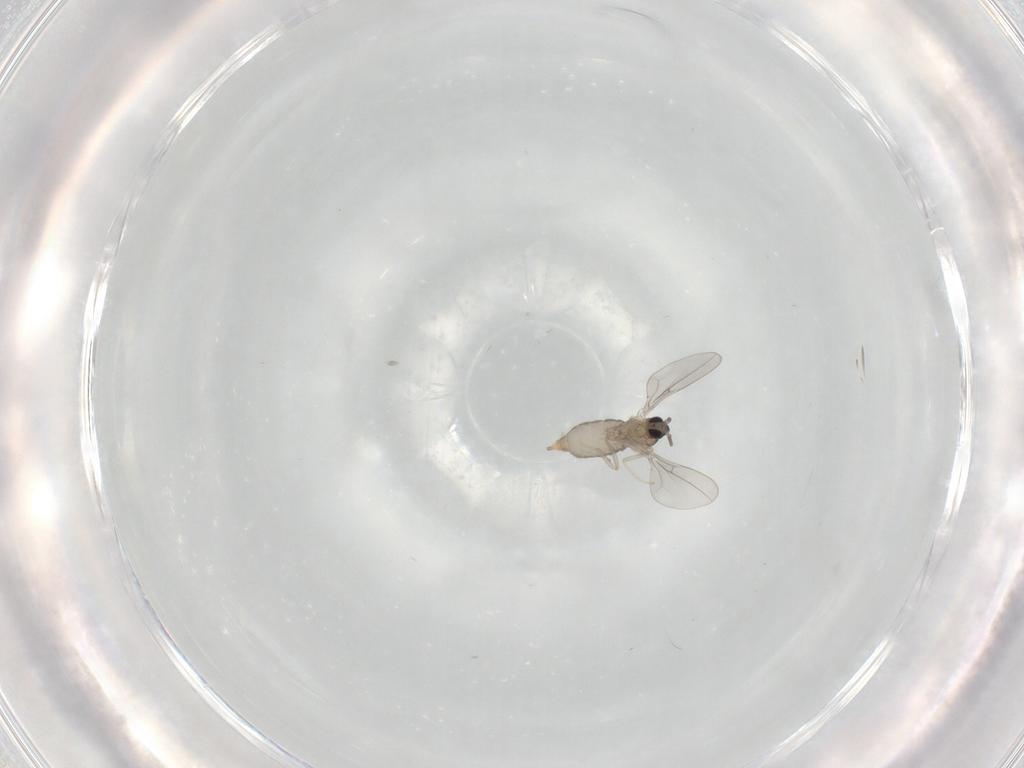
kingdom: Animalia
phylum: Arthropoda
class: Insecta
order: Diptera
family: Cecidomyiidae
